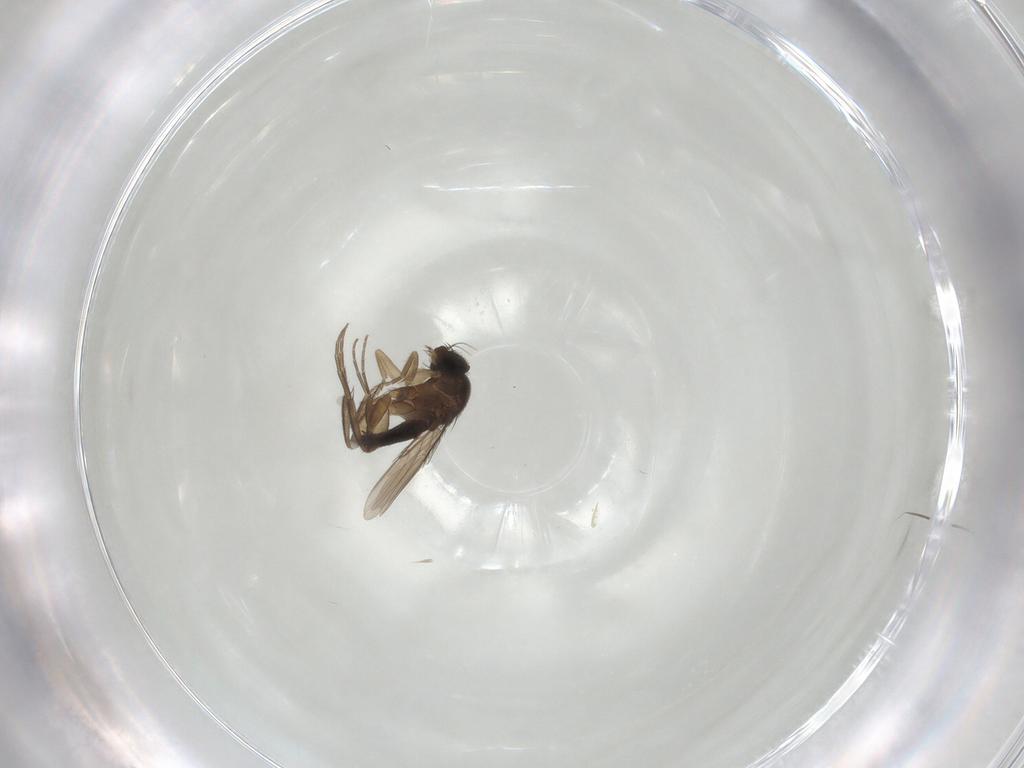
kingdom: Animalia
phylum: Arthropoda
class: Insecta
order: Diptera
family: Phoridae
